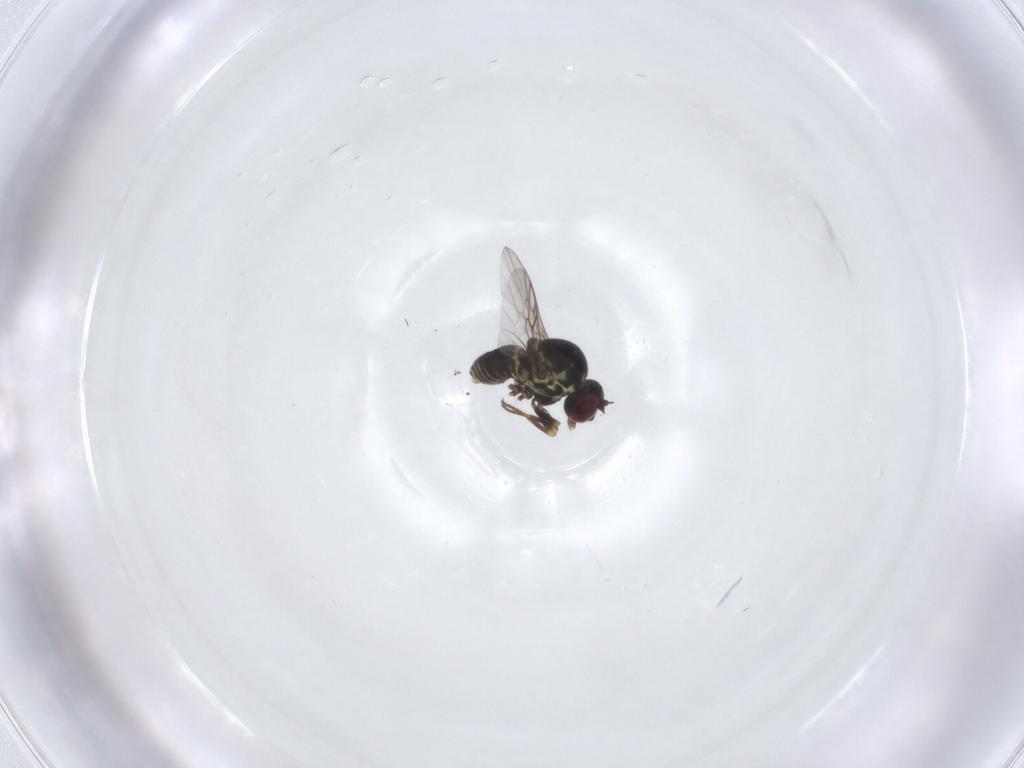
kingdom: Animalia
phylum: Arthropoda
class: Insecta
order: Diptera
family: Mythicomyiidae
